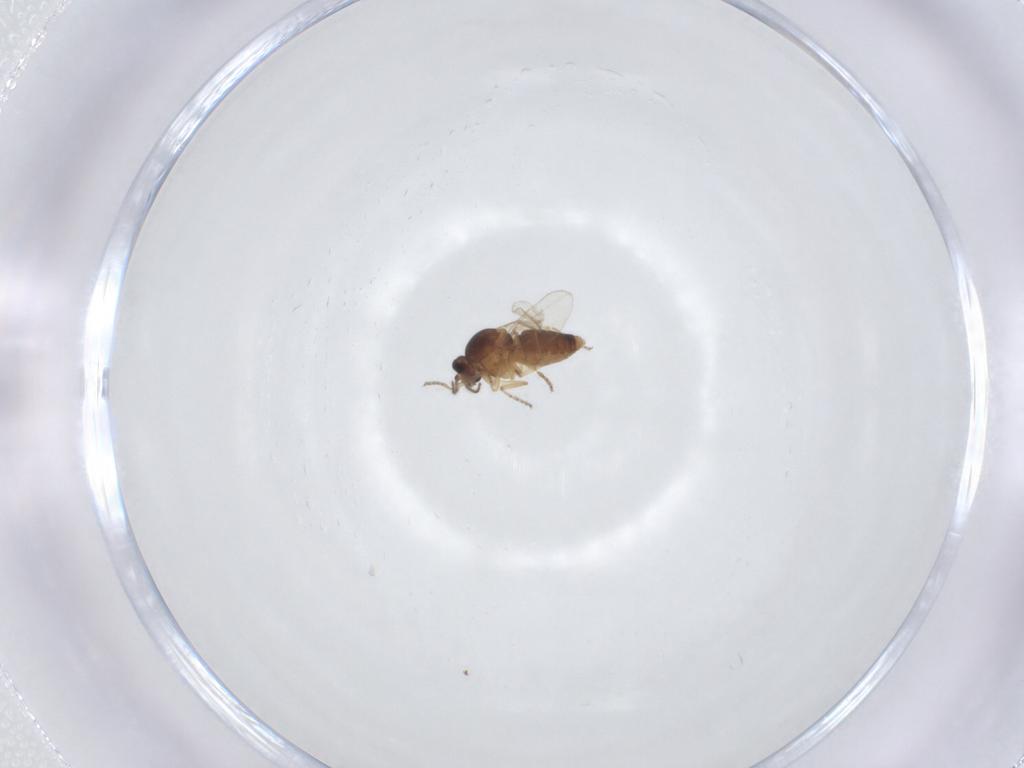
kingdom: Animalia
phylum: Arthropoda
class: Insecta
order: Diptera
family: Ceratopogonidae
